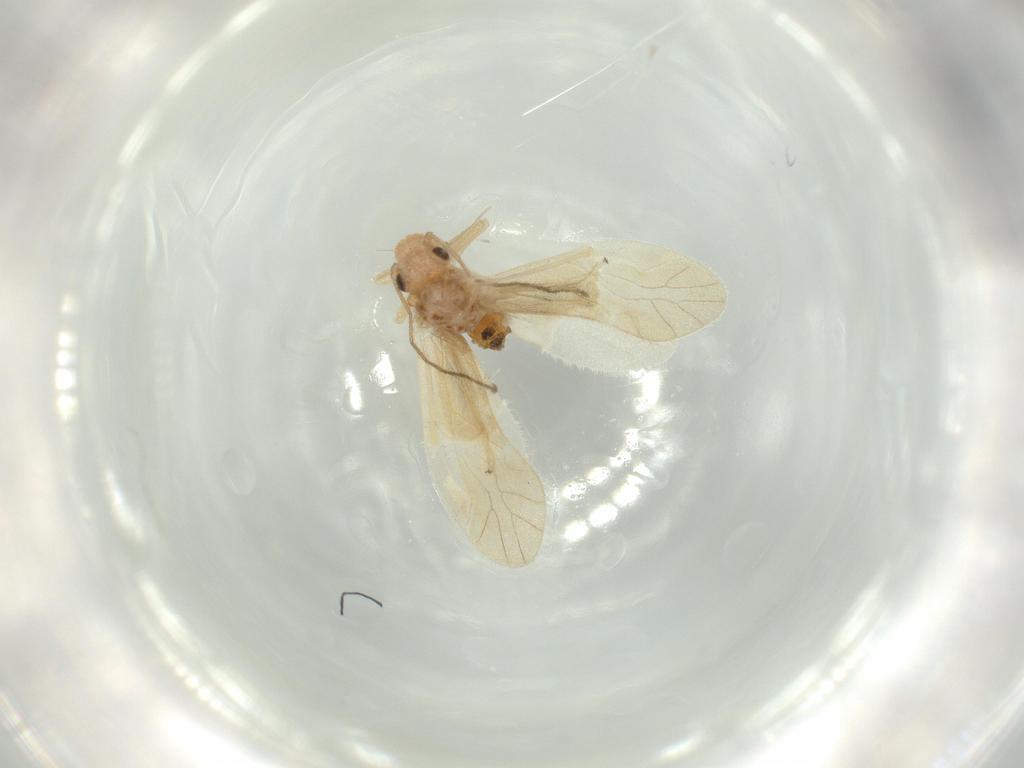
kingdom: Animalia
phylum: Arthropoda
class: Insecta
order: Psocodea
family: Caeciliusidae
